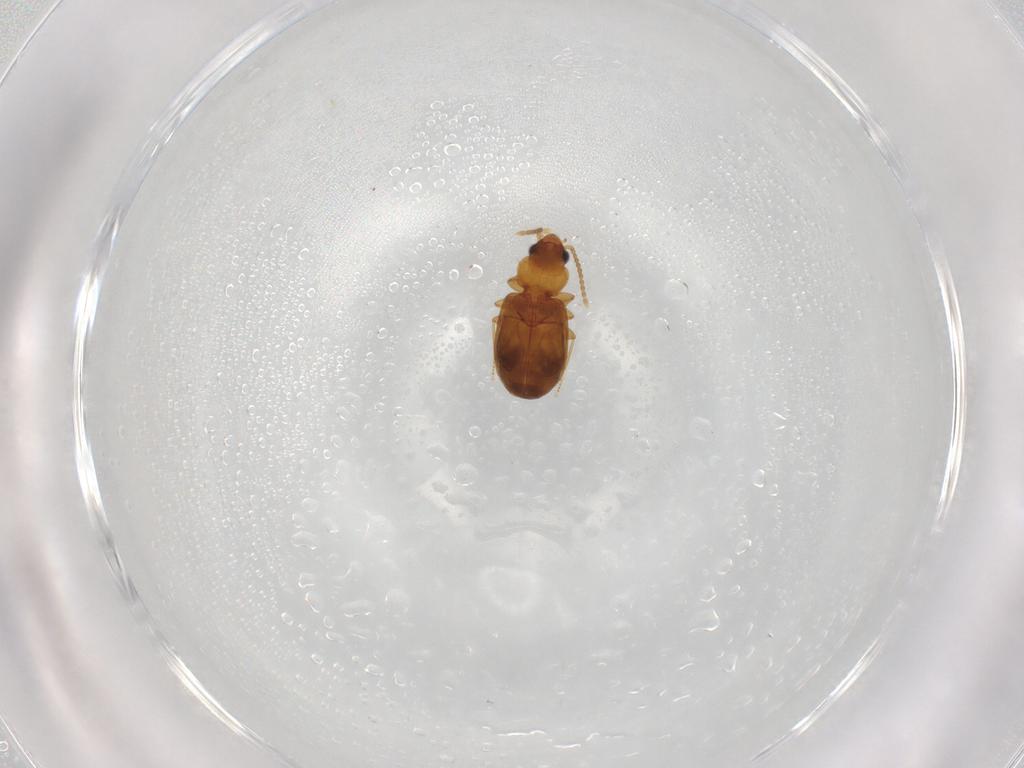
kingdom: Animalia
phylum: Arthropoda
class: Insecta
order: Coleoptera
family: Carabidae
